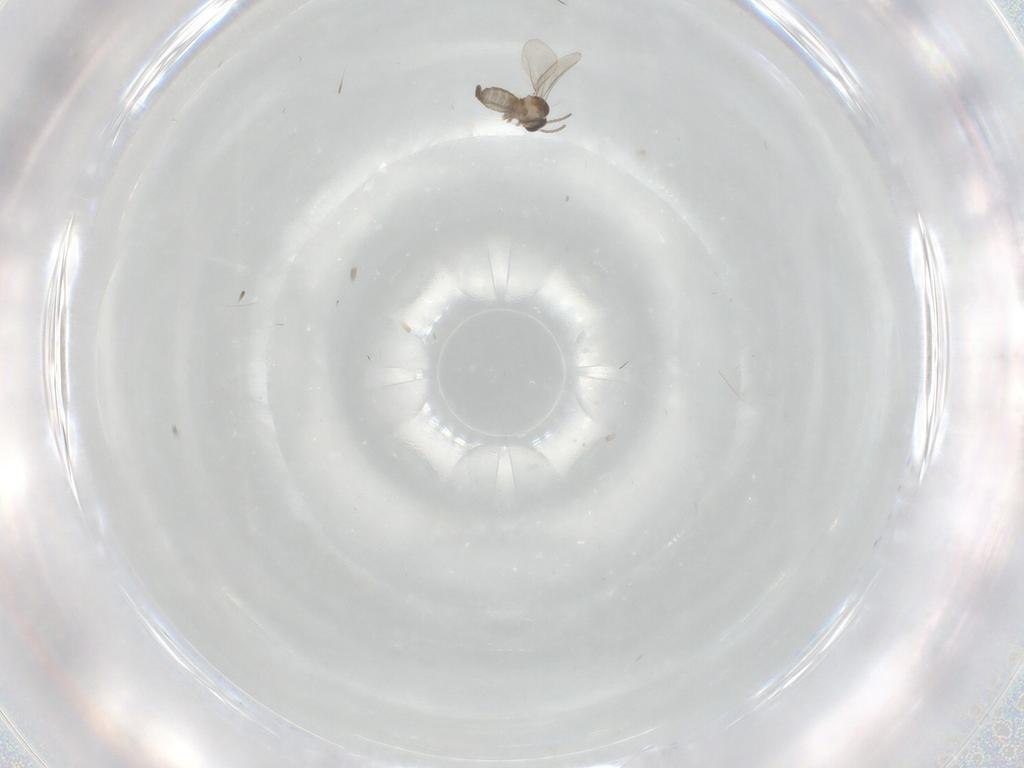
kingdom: Animalia
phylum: Arthropoda
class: Insecta
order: Diptera
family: Cecidomyiidae
